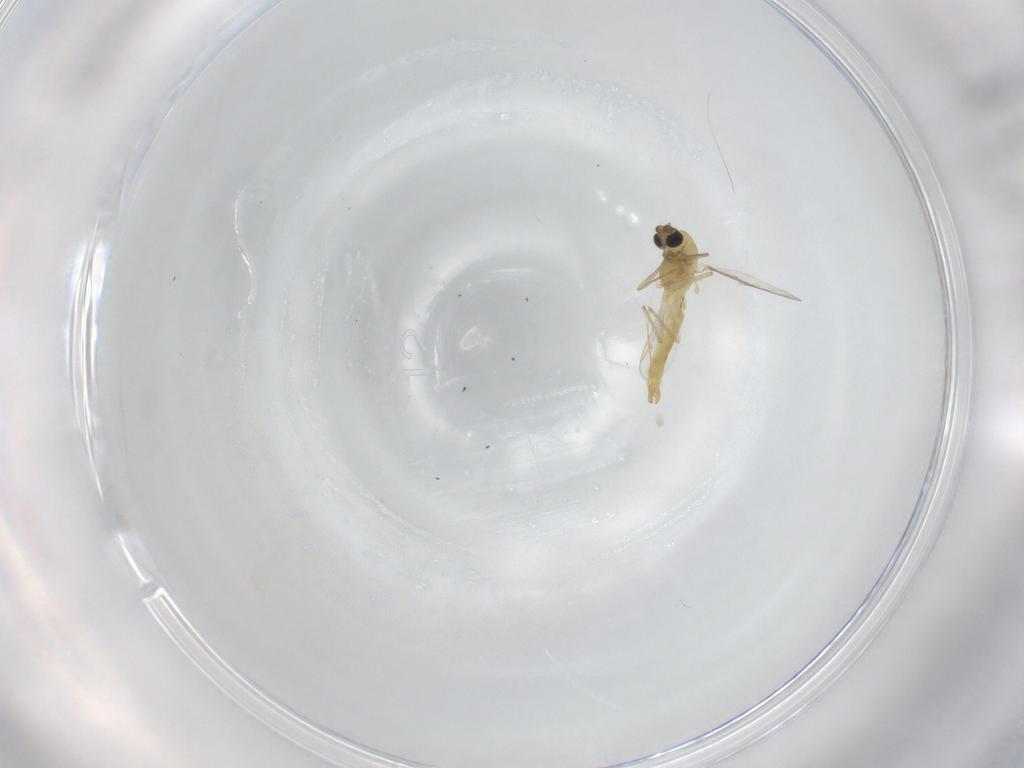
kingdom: Animalia
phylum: Arthropoda
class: Insecta
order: Diptera
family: Chironomidae
